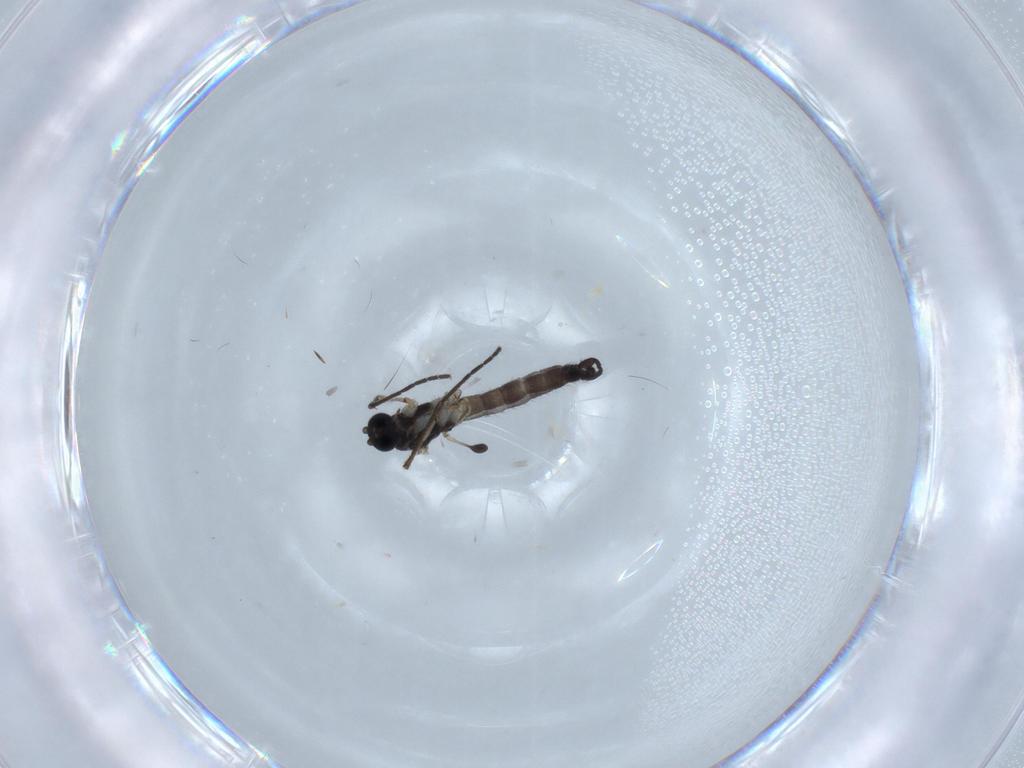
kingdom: Animalia
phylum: Arthropoda
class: Insecta
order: Diptera
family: Sciaridae
